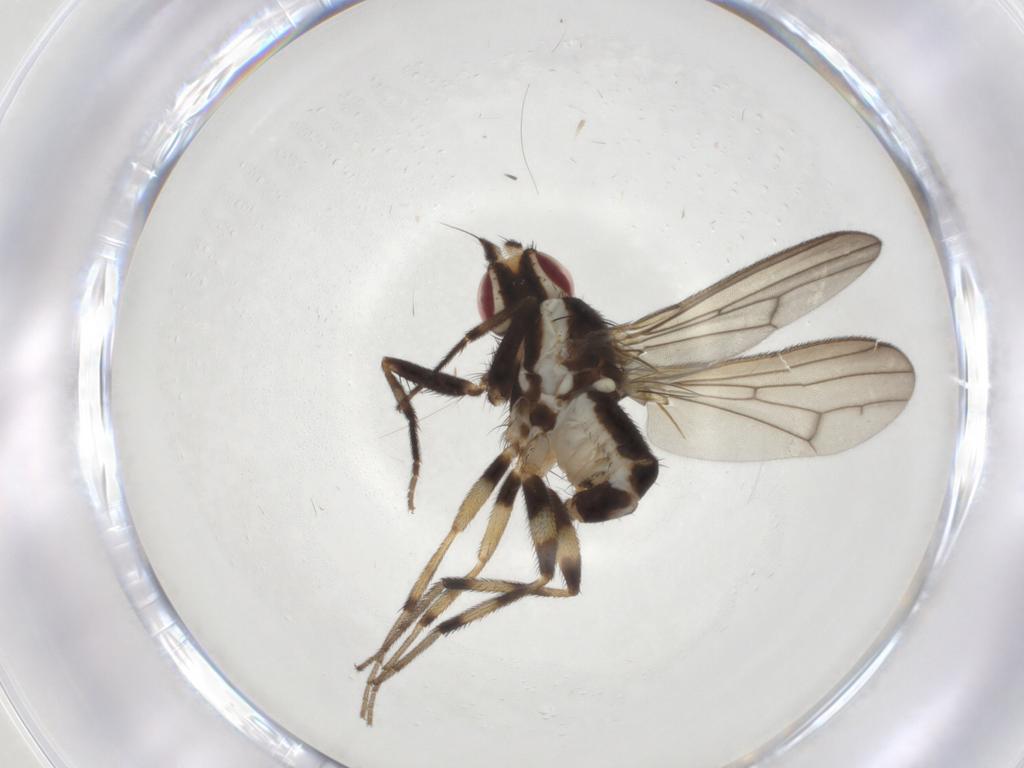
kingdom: Animalia
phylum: Arthropoda
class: Insecta
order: Diptera
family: Pseudopomyzidae
